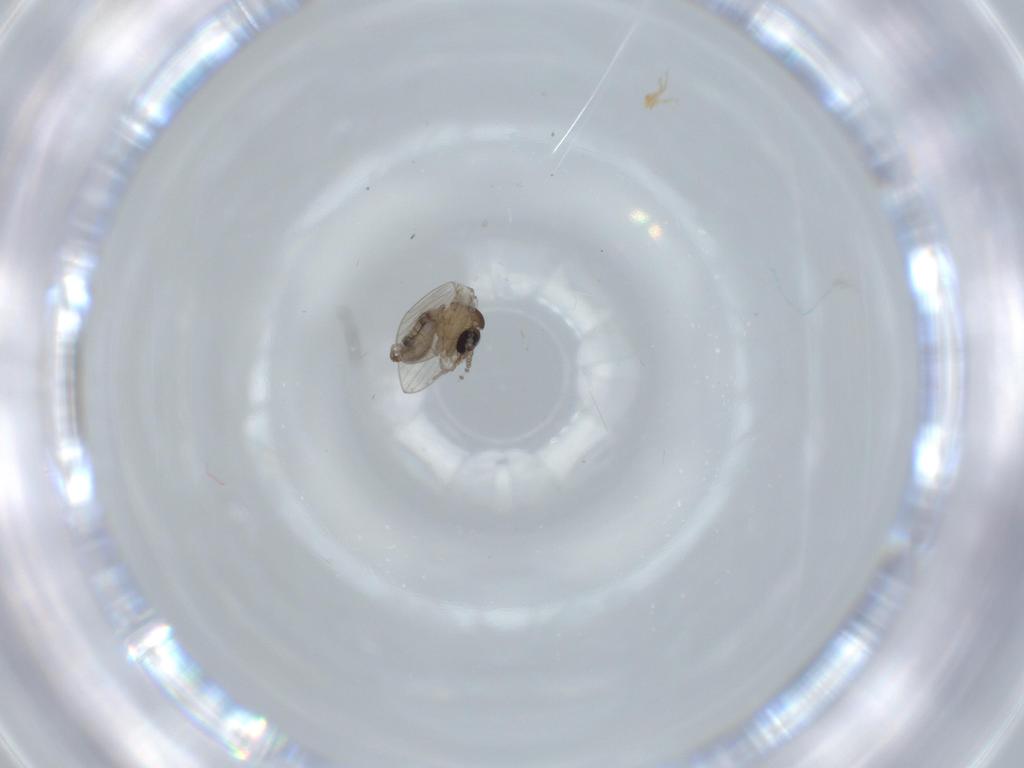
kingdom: Animalia
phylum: Arthropoda
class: Insecta
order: Diptera
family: Psychodidae
